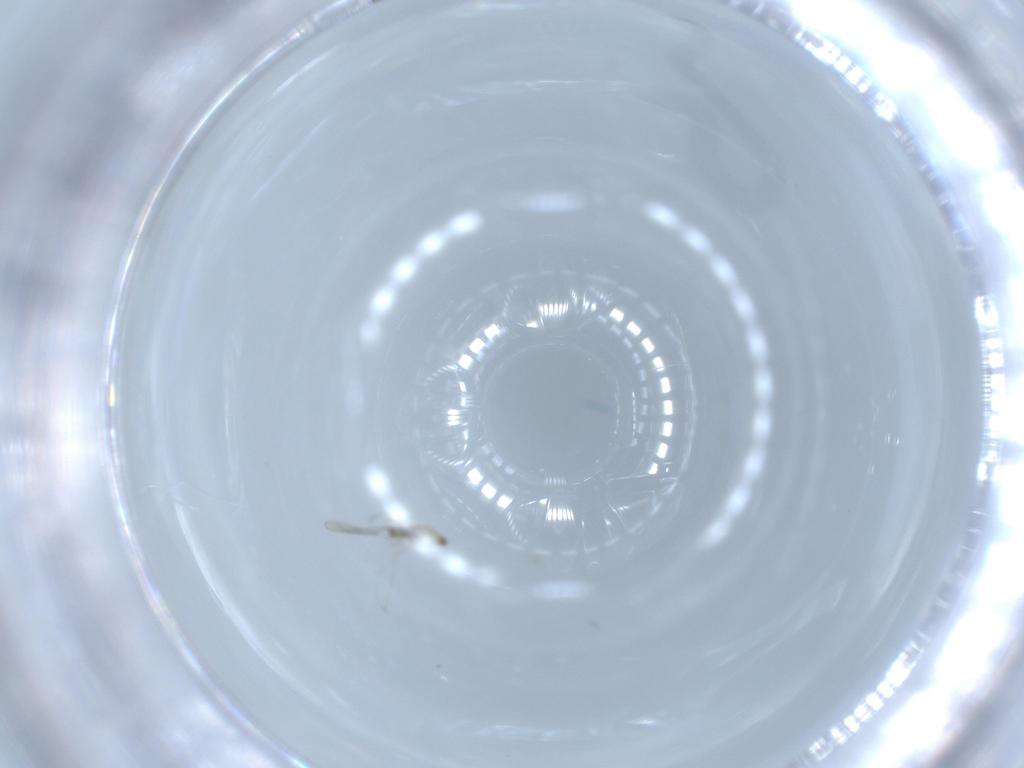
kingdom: Animalia
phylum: Arthropoda
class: Insecta
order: Diptera
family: Cecidomyiidae
